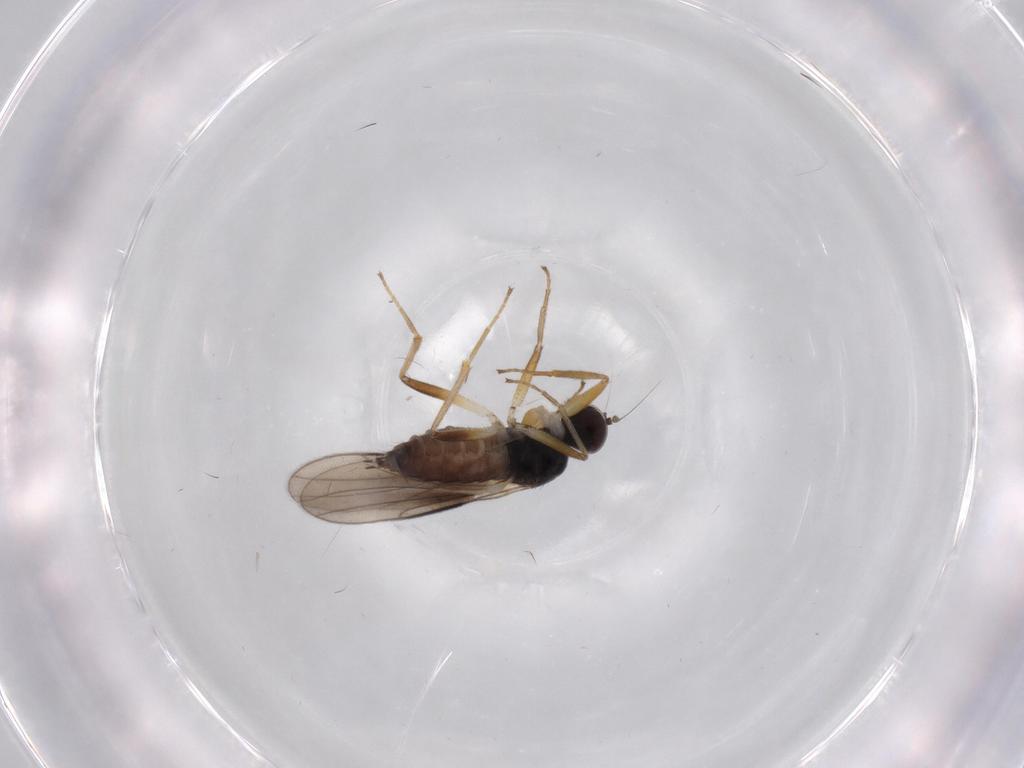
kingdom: Animalia
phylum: Arthropoda
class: Insecta
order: Diptera
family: Hybotidae
